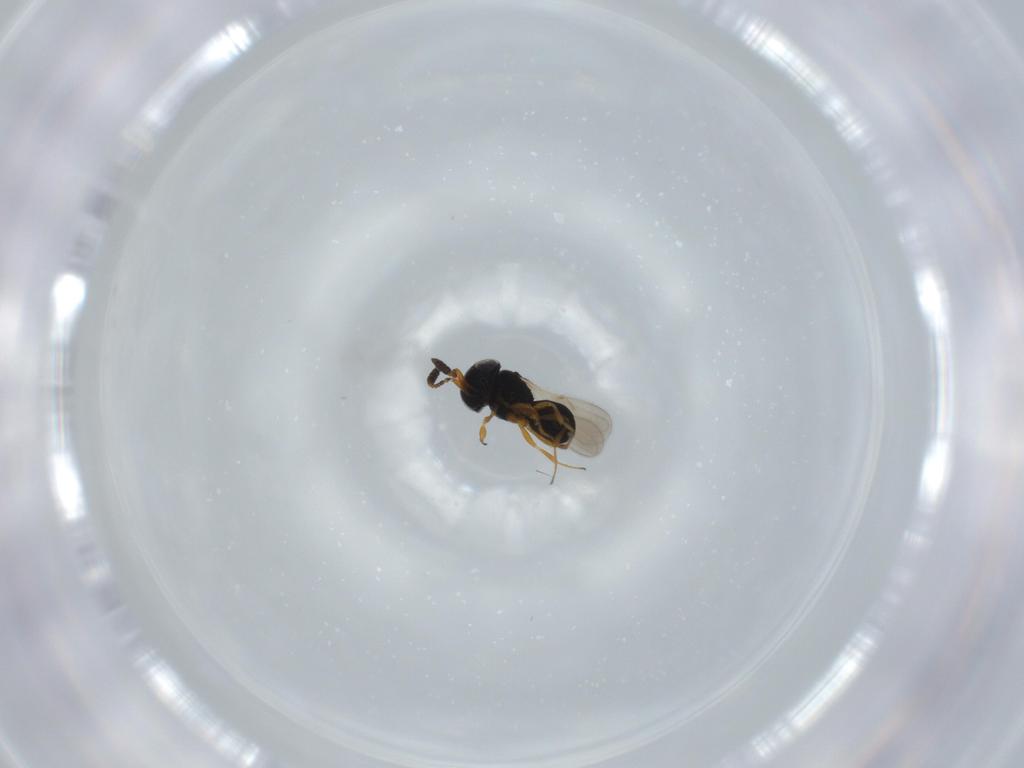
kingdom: Animalia
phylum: Arthropoda
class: Insecta
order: Hymenoptera
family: Scelionidae
